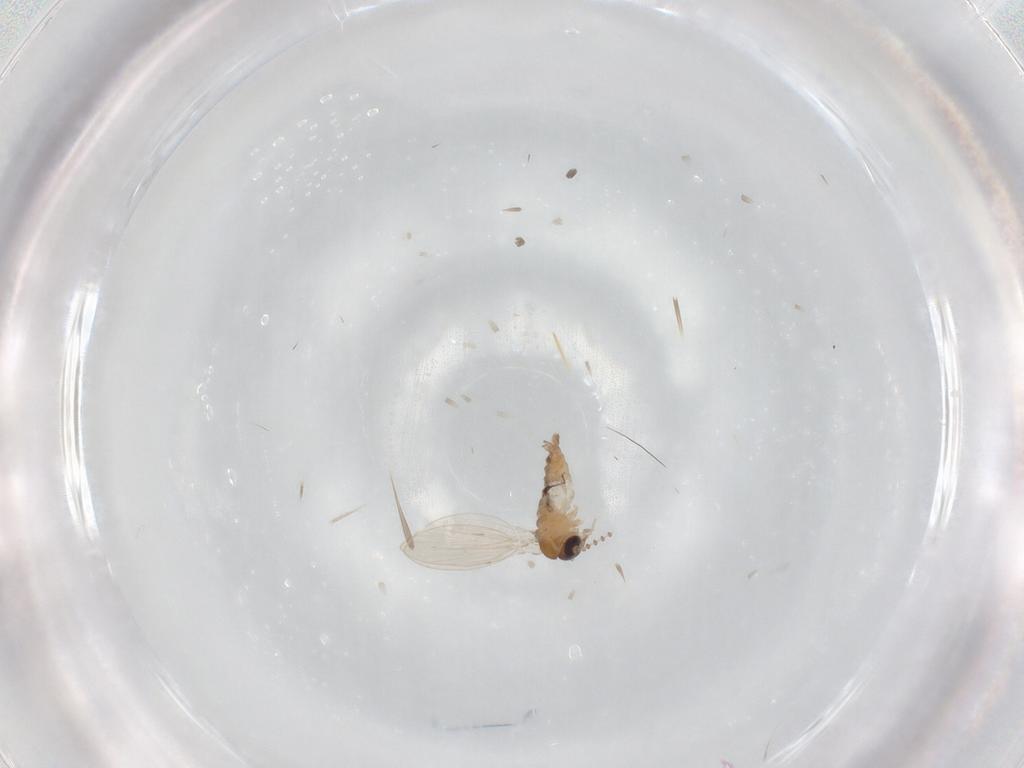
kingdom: Animalia
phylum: Arthropoda
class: Insecta
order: Diptera
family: Psychodidae
